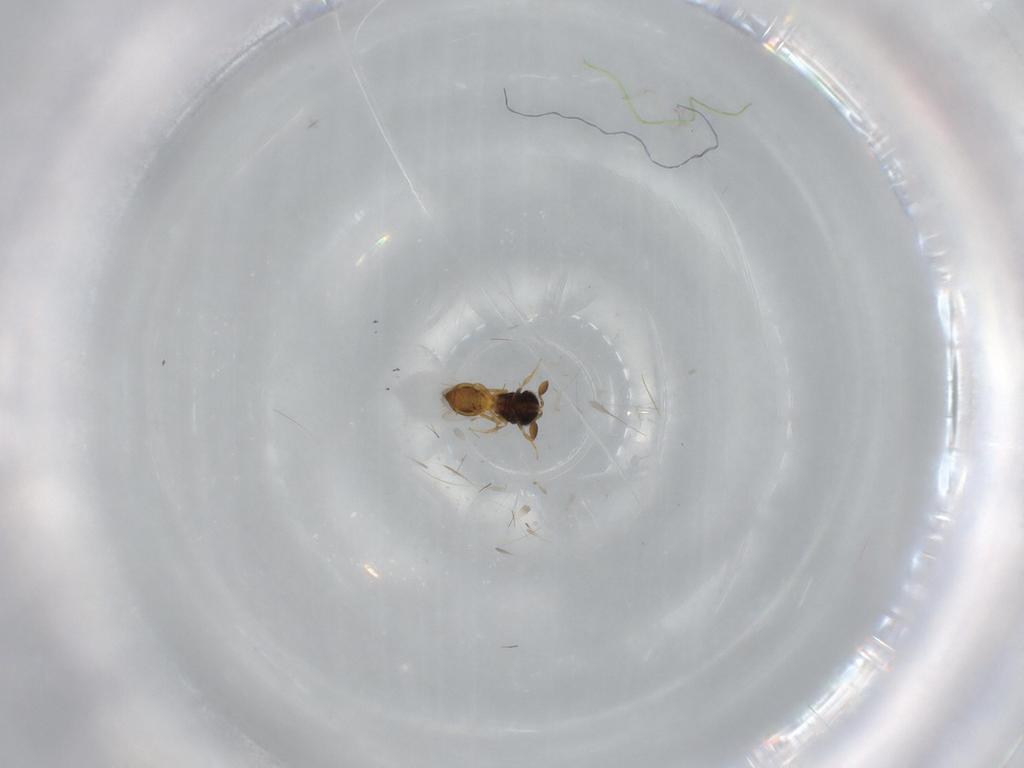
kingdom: Animalia
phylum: Arthropoda
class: Insecta
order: Hymenoptera
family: Scelionidae
